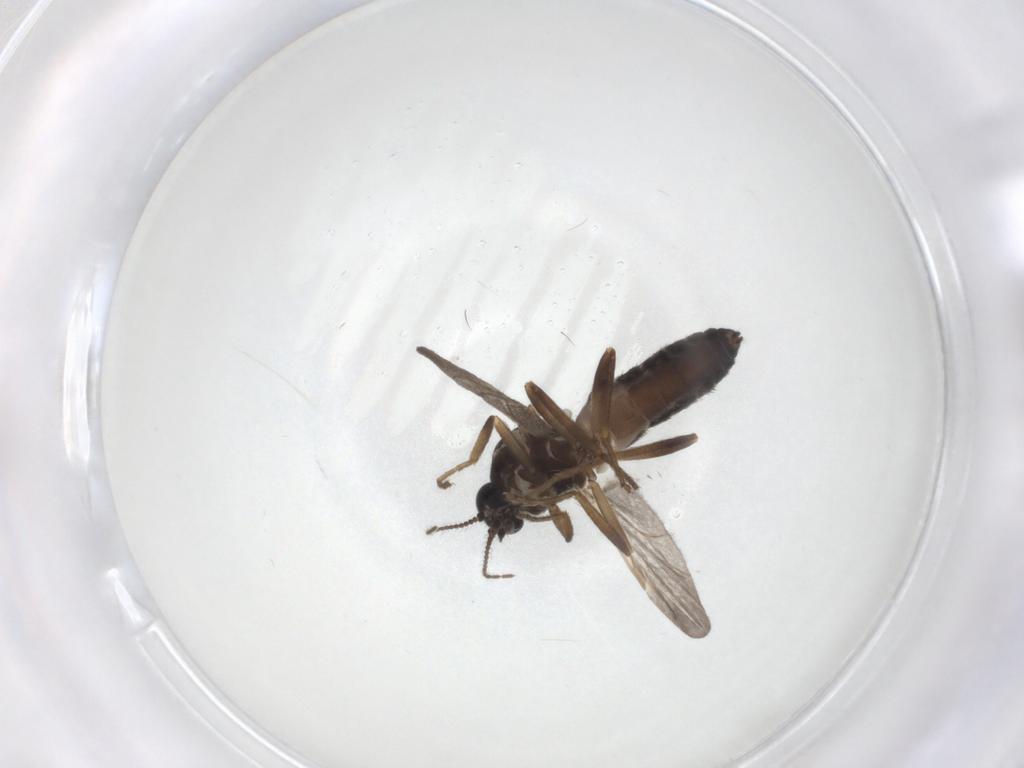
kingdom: Animalia
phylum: Arthropoda
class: Insecta
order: Diptera
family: Ceratopogonidae
